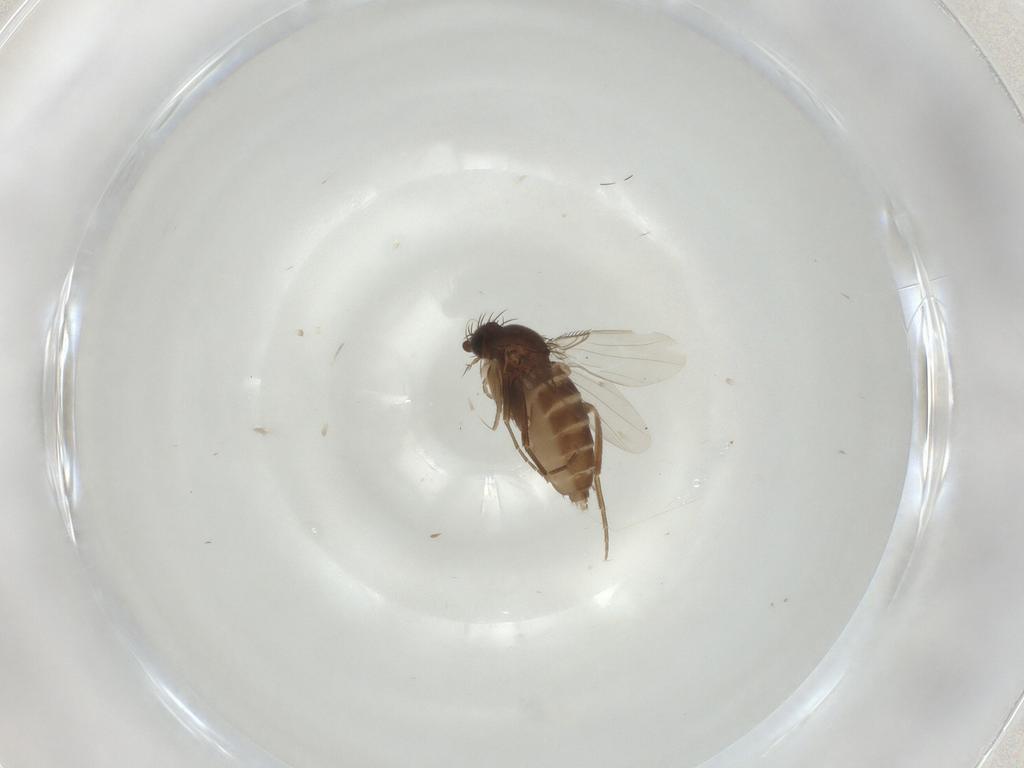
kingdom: Animalia
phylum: Arthropoda
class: Insecta
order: Diptera
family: Phoridae
